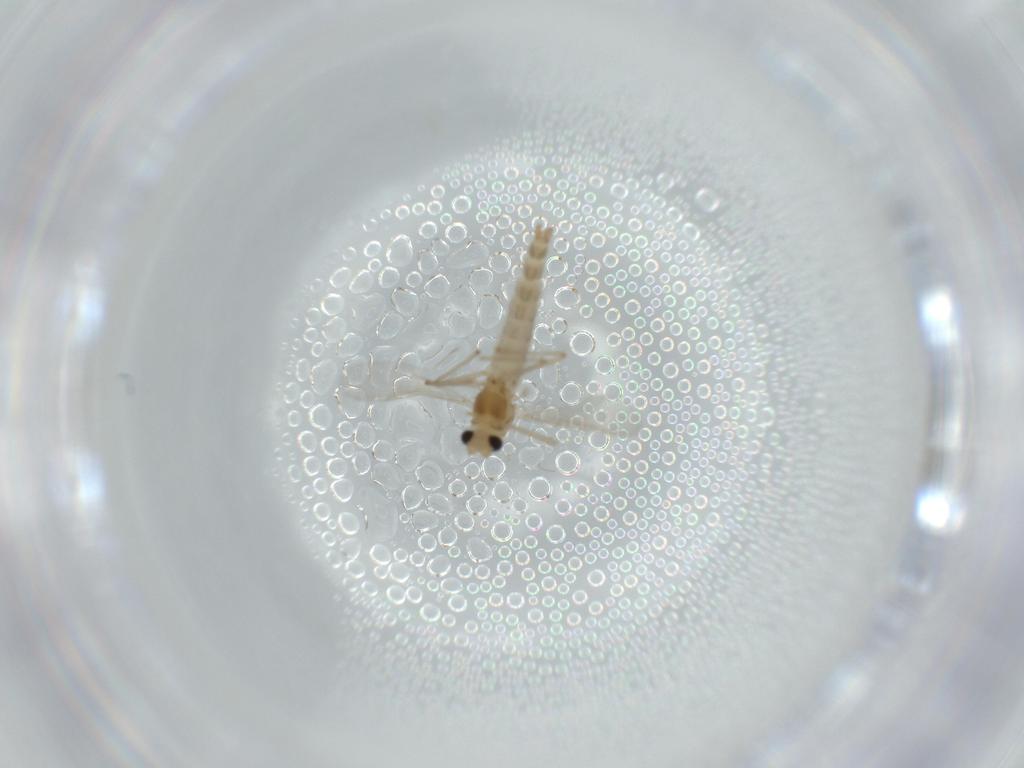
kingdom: Animalia
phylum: Arthropoda
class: Insecta
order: Diptera
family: Chironomidae
